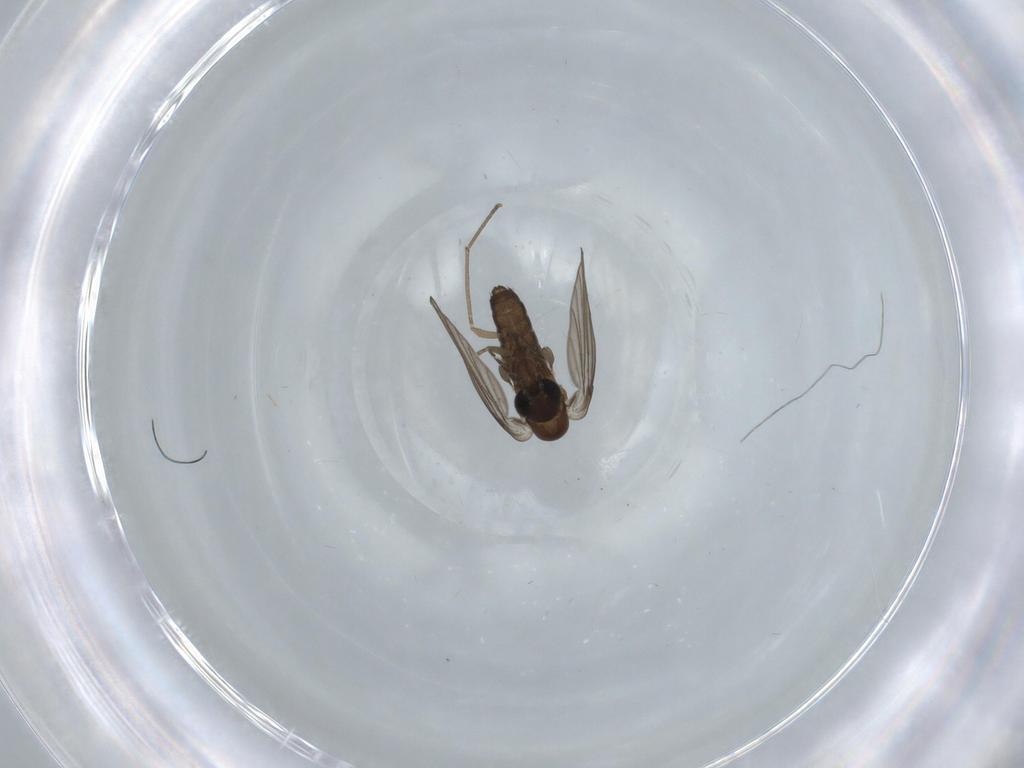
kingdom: Animalia
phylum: Arthropoda
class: Insecta
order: Diptera
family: Psychodidae
